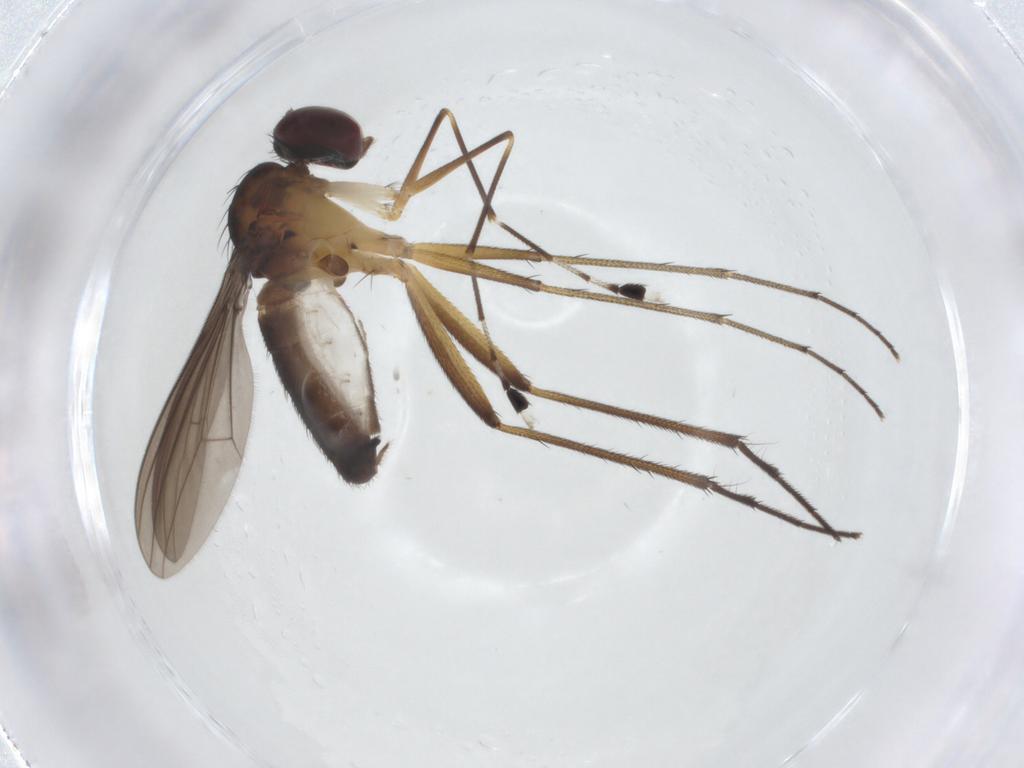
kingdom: Animalia
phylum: Arthropoda
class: Insecta
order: Diptera
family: Dolichopodidae
